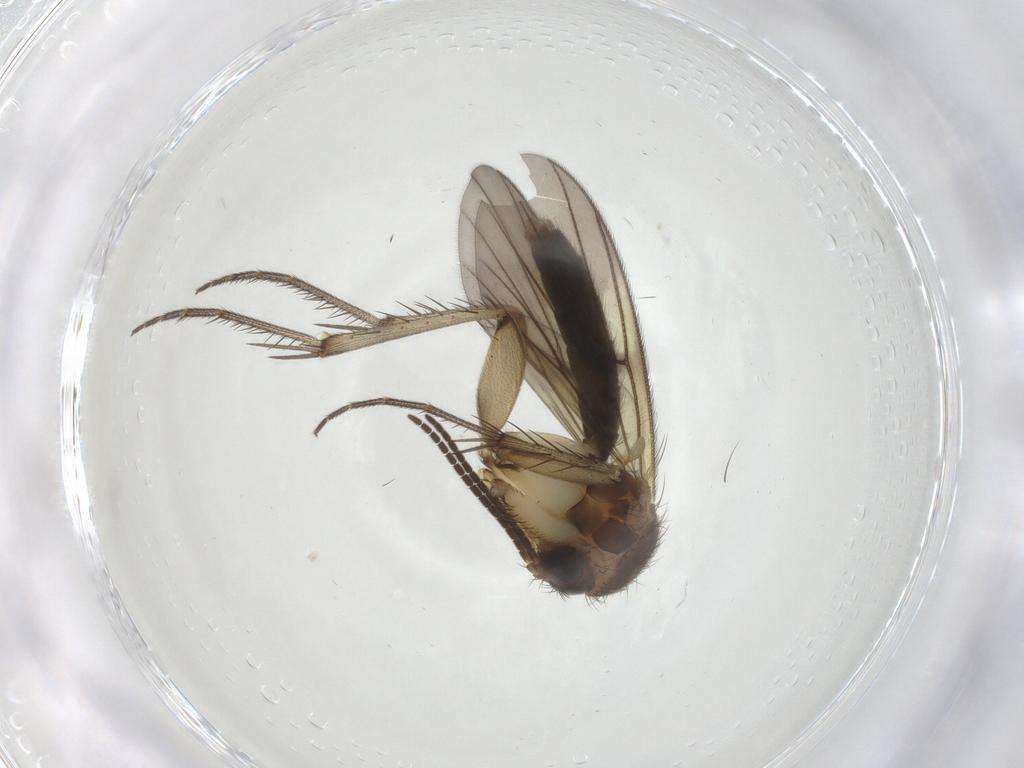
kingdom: Animalia
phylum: Arthropoda
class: Insecta
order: Diptera
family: Mycetophilidae
